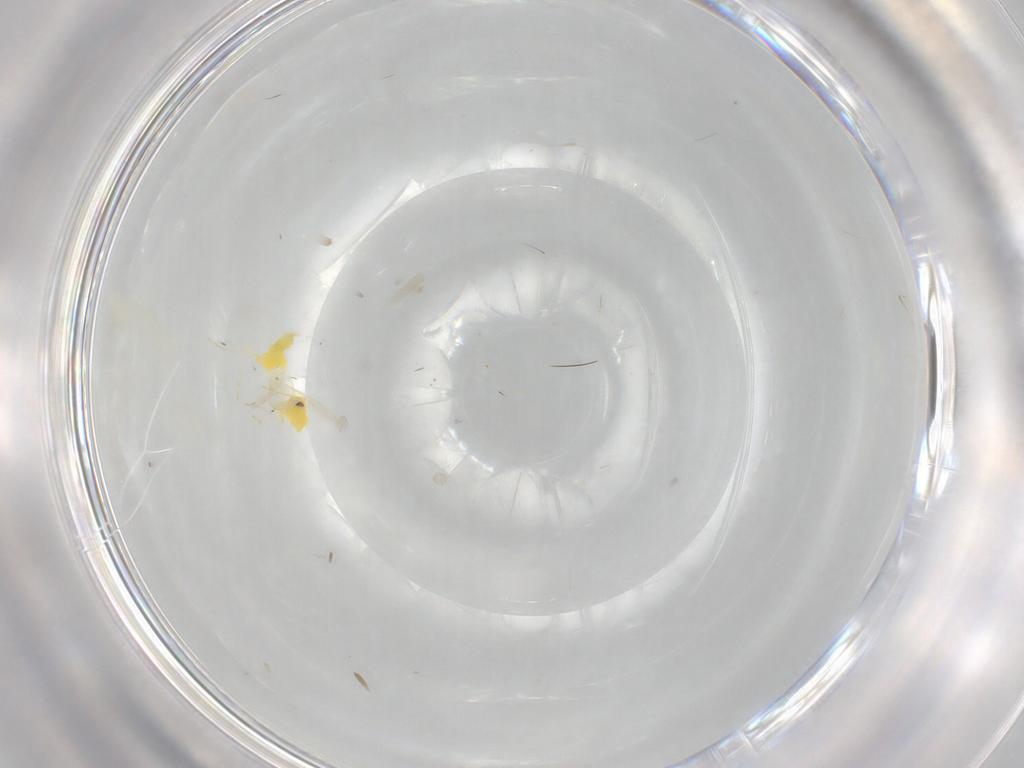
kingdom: Animalia
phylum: Arthropoda
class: Insecta
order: Hemiptera
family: Cicadellidae
